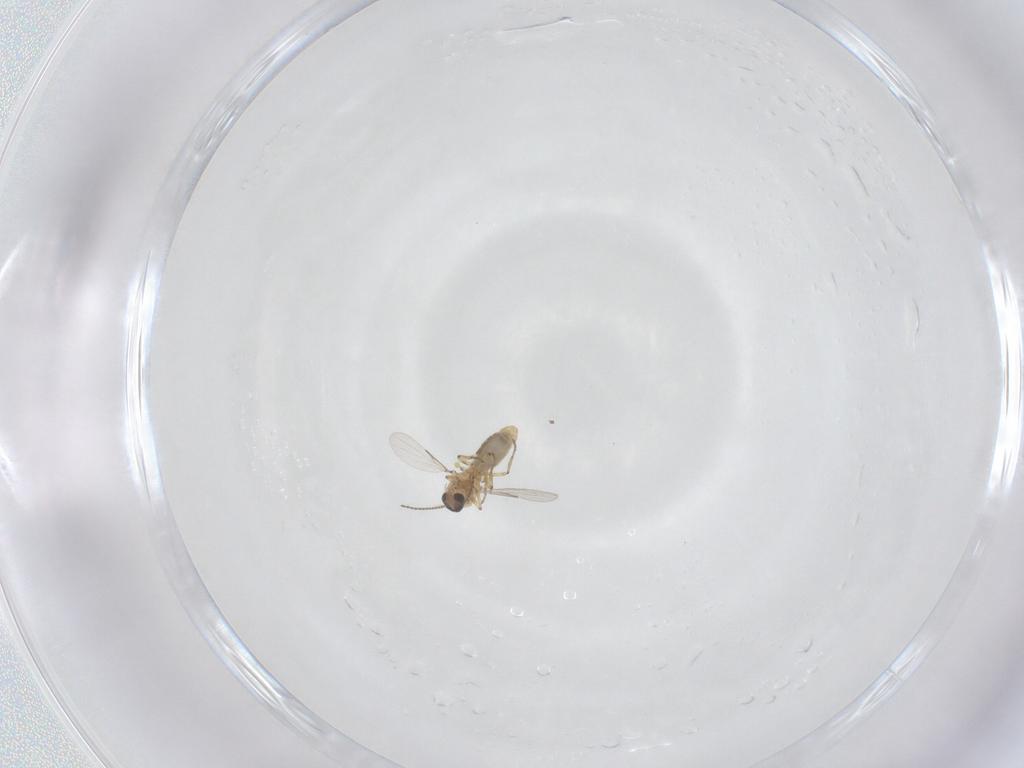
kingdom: Animalia
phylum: Arthropoda
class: Insecta
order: Diptera
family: Ceratopogonidae
